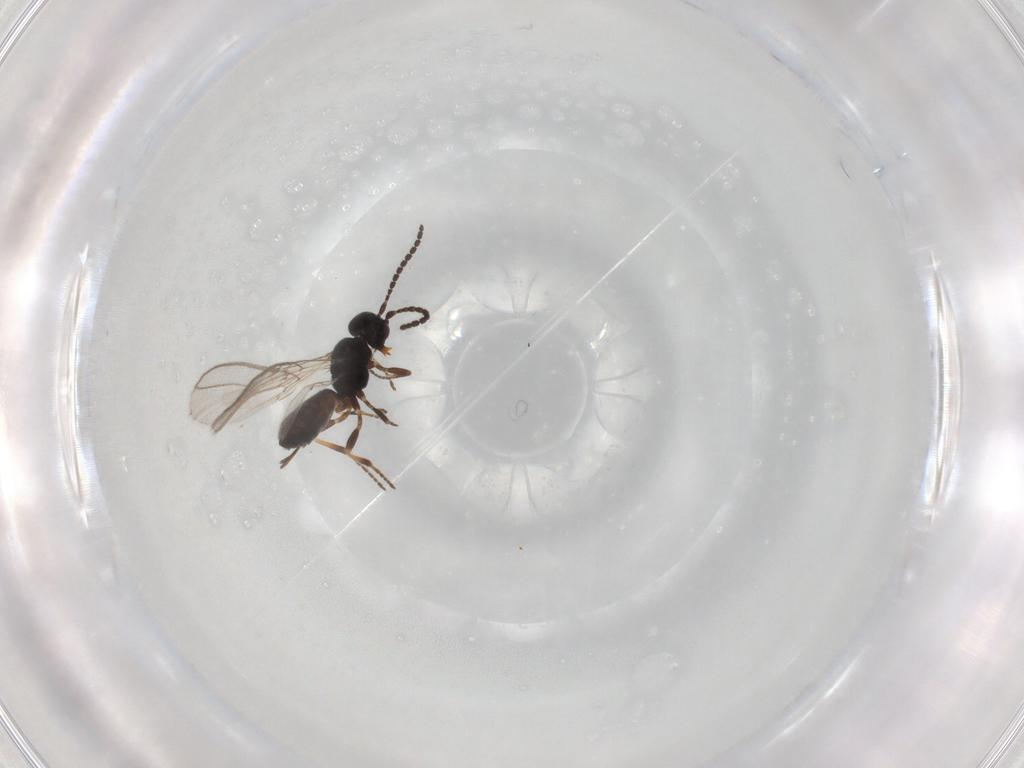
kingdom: Animalia
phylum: Arthropoda
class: Insecta
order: Hymenoptera
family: Braconidae
